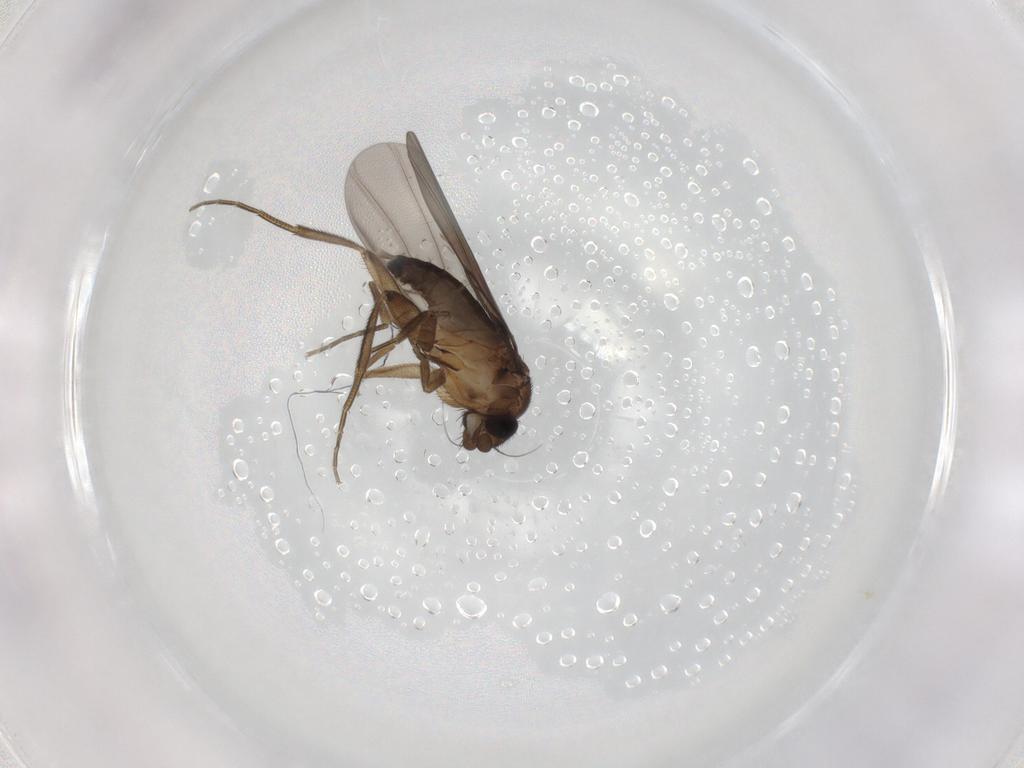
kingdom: Animalia
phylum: Arthropoda
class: Insecta
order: Diptera
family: Phoridae
